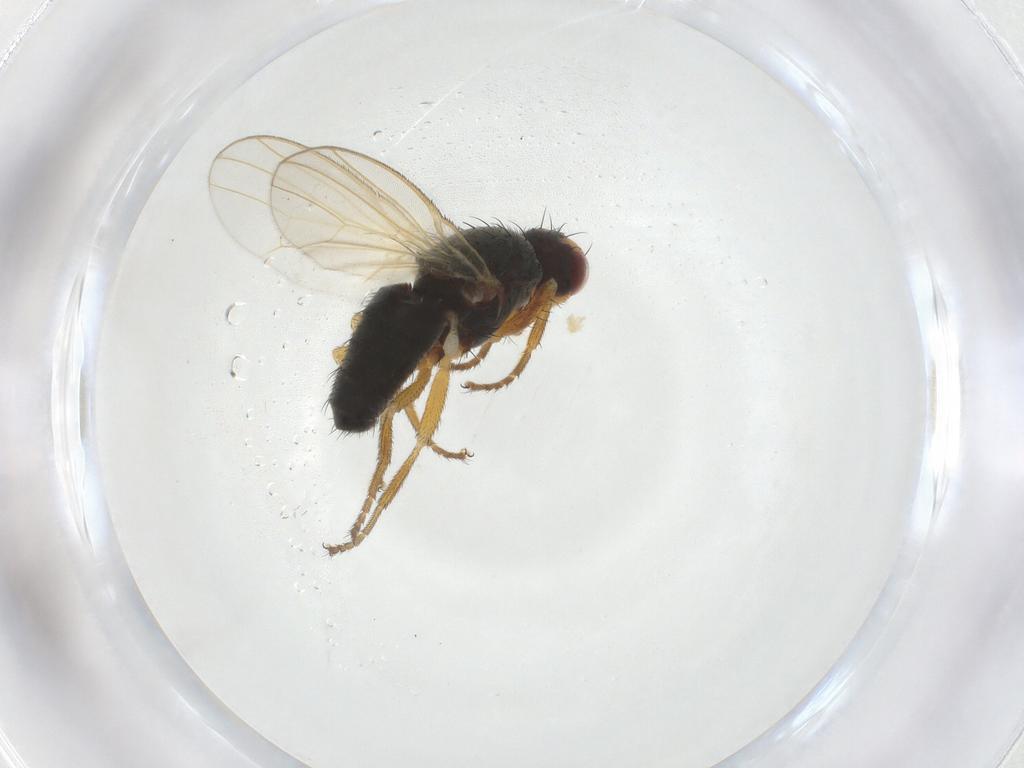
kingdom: Animalia
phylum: Arthropoda
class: Insecta
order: Diptera
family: Heleomyzidae
